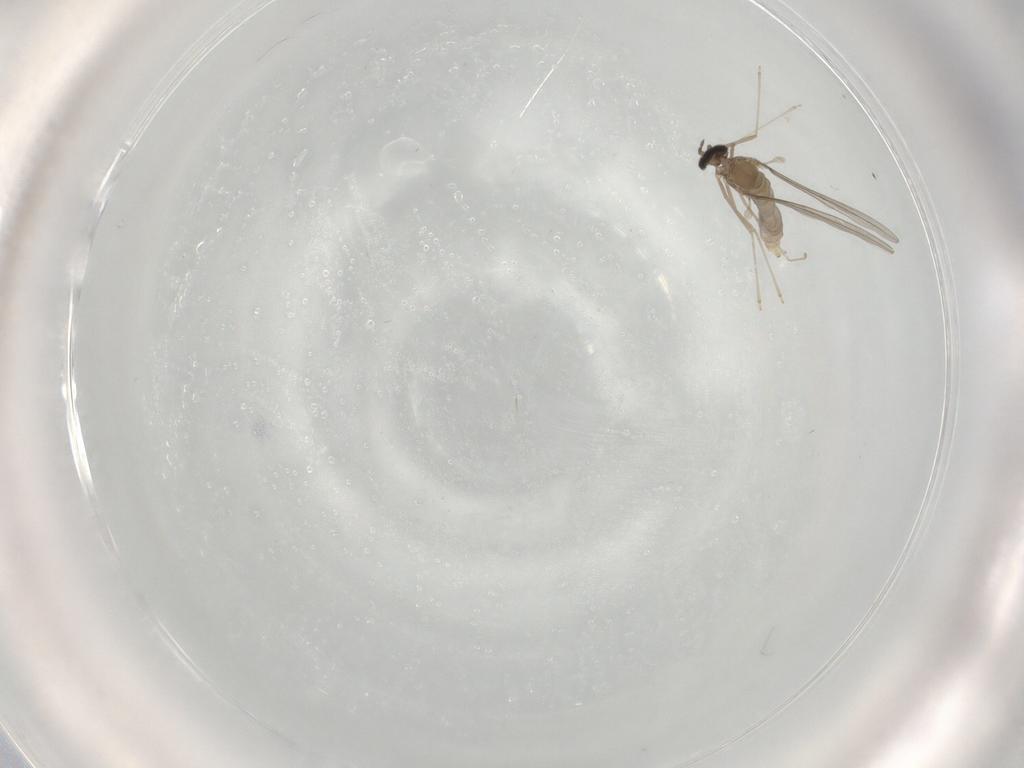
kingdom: Animalia
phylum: Arthropoda
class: Insecta
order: Diptera
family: Cecidomyiidae
